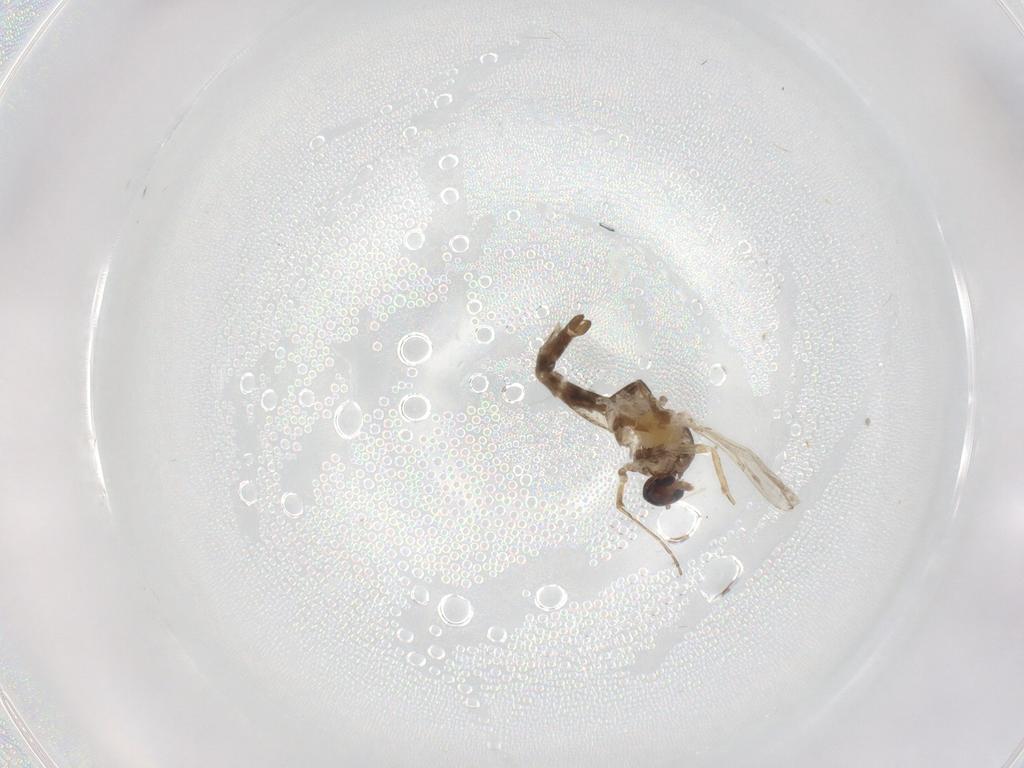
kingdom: Animalia
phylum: Arthropoda
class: Insecta
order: Diptera
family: Ceratopogonidae
